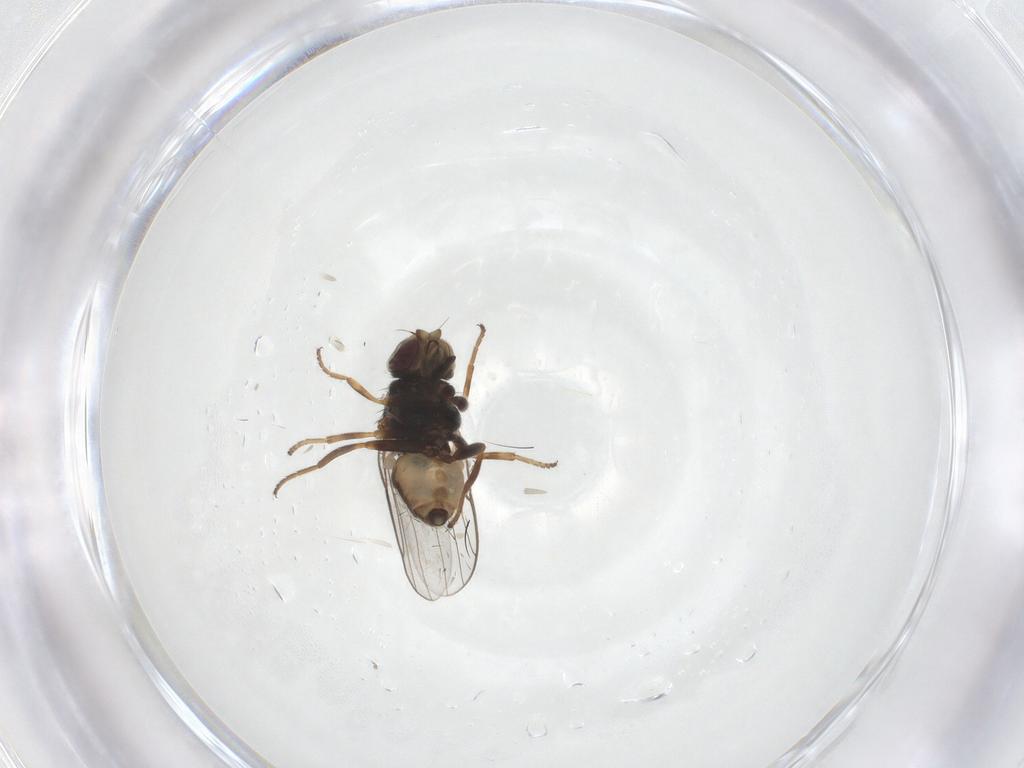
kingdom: Animalia
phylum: Arthropoda
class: Insecta
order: Diptera
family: Chloropidae
